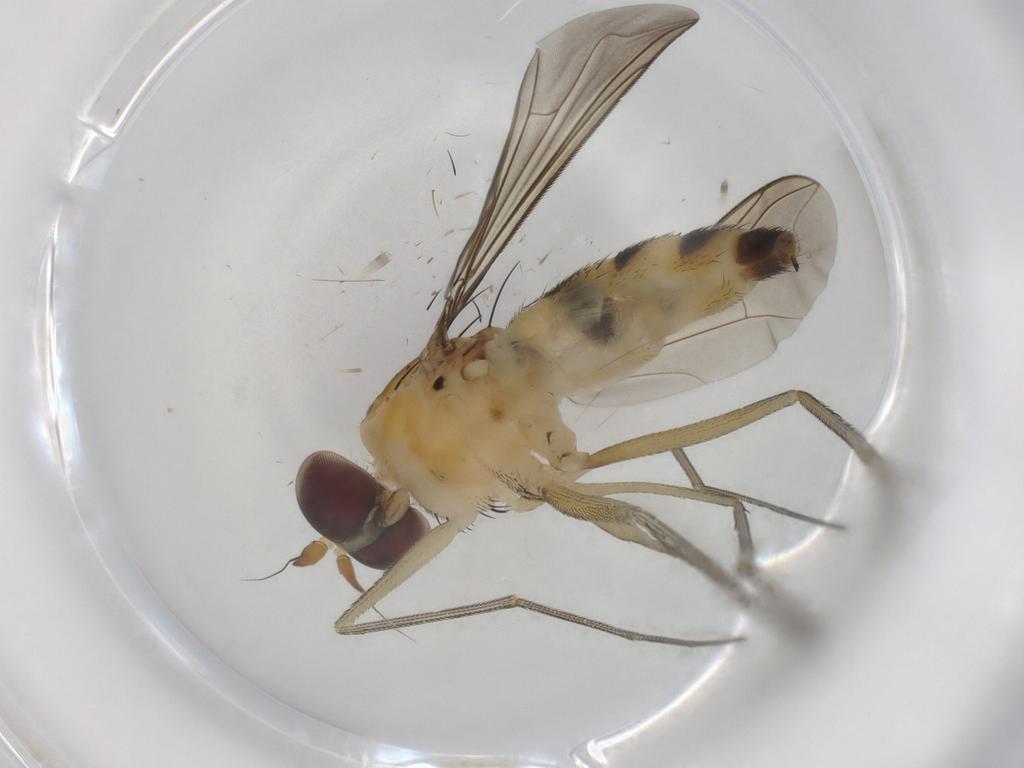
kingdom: Animalia
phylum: Arthropoda
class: Insecta
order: Diptera
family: Dolichopodidae
